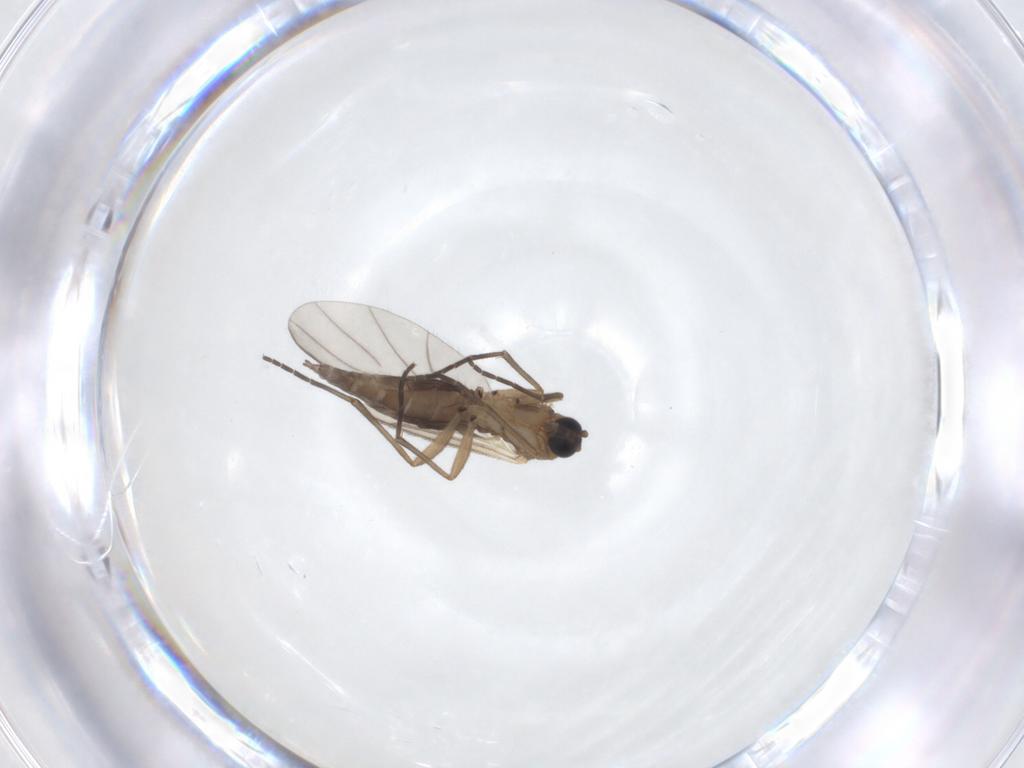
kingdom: Animalia
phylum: Arthropoda
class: Insecta
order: Diptera
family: Sciaridae
